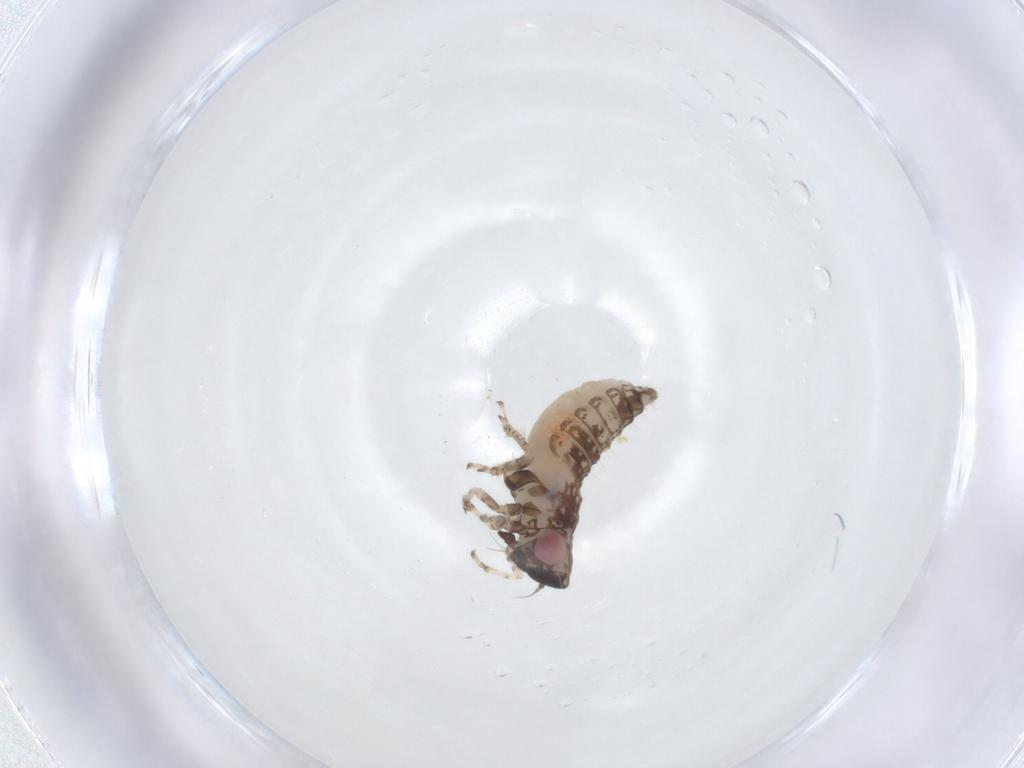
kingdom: Animalia
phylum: Arthropoda
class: Insecta
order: Hemiptera
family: Cicadellidae
